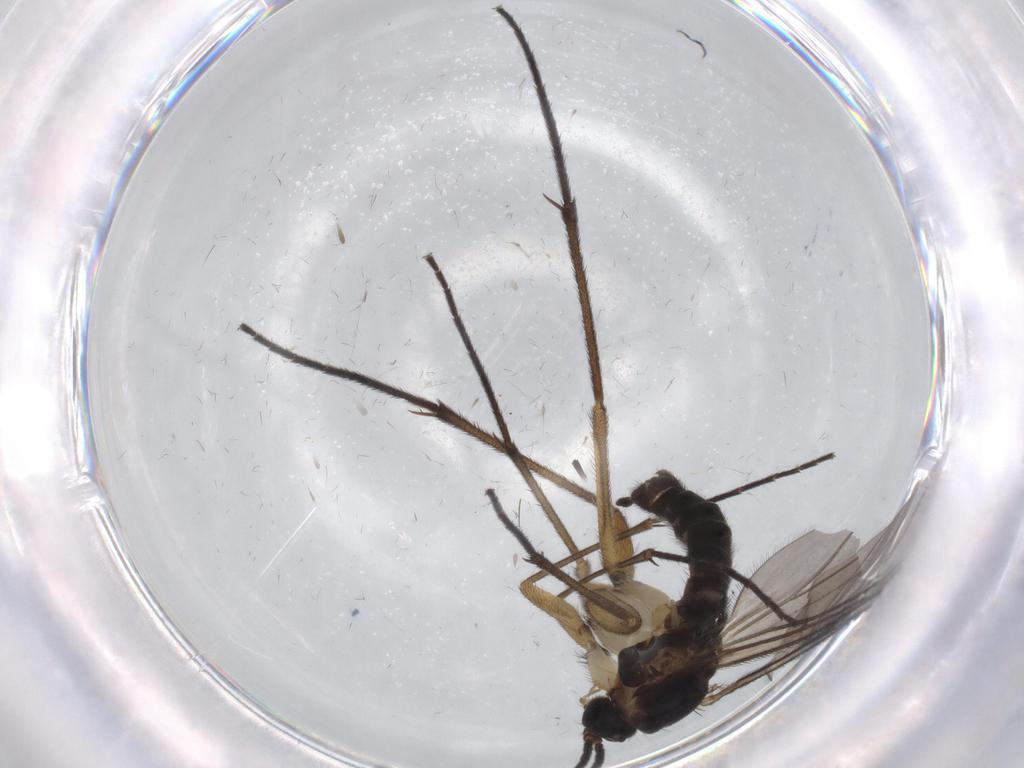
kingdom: Animalia
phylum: Arthropoda
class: Insecta
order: Diptera
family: Sciaridae
